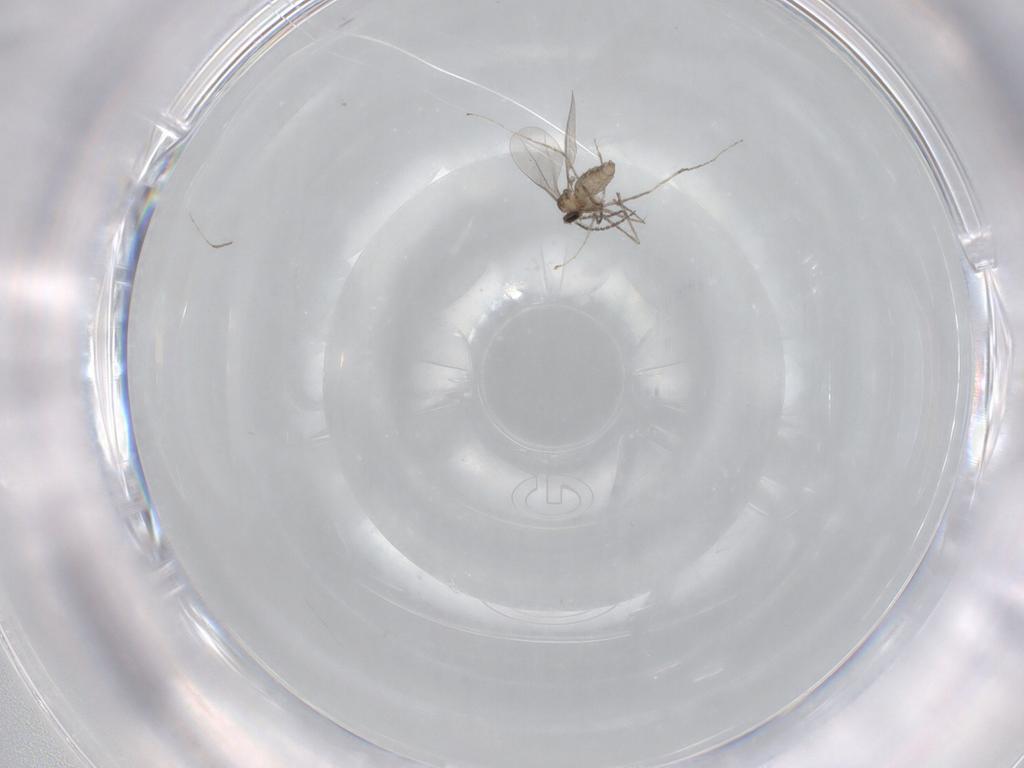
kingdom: Animalia
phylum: Arthropoda
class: Insecta
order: Diptera
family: Cecidomyiidae
